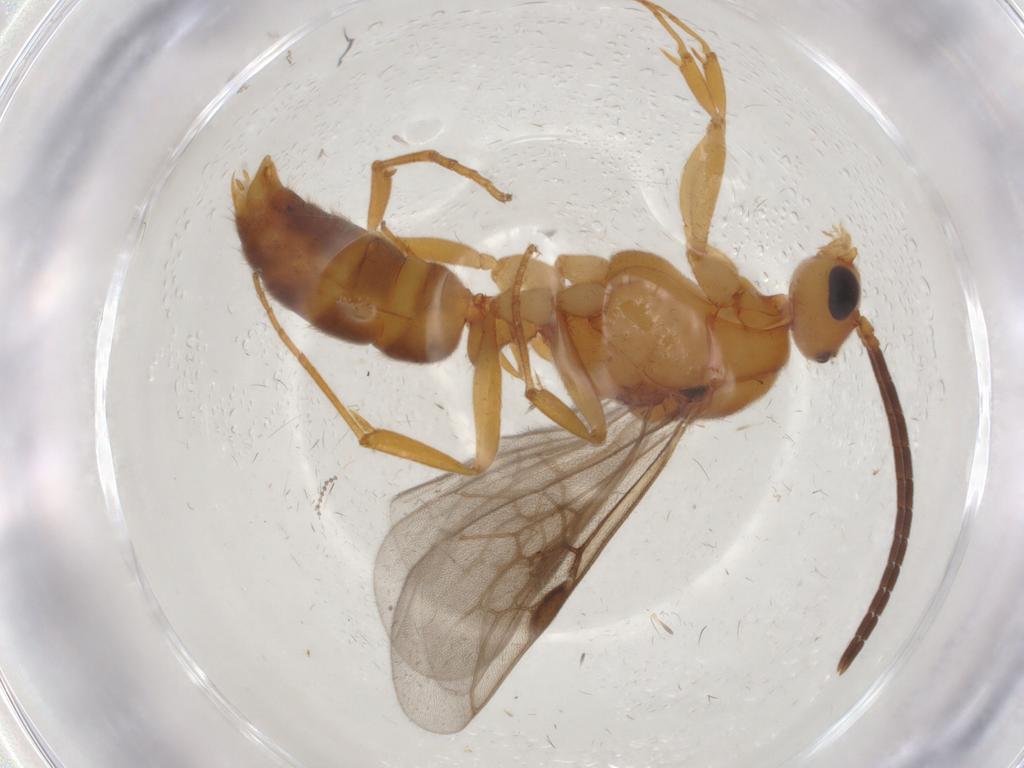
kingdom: Animalia
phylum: Arthropoda
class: Insecta
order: Hymenoptera
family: Formicidae
